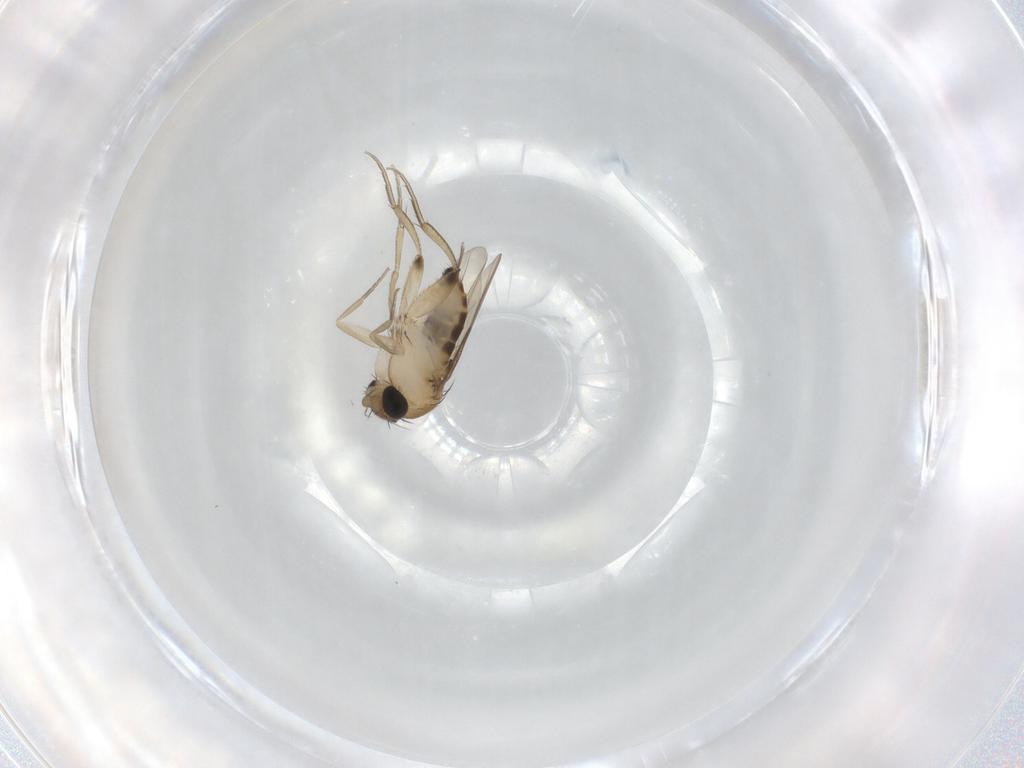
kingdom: Animalia
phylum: Arthropoda
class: Insecta
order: Diptera
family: Phoridae
